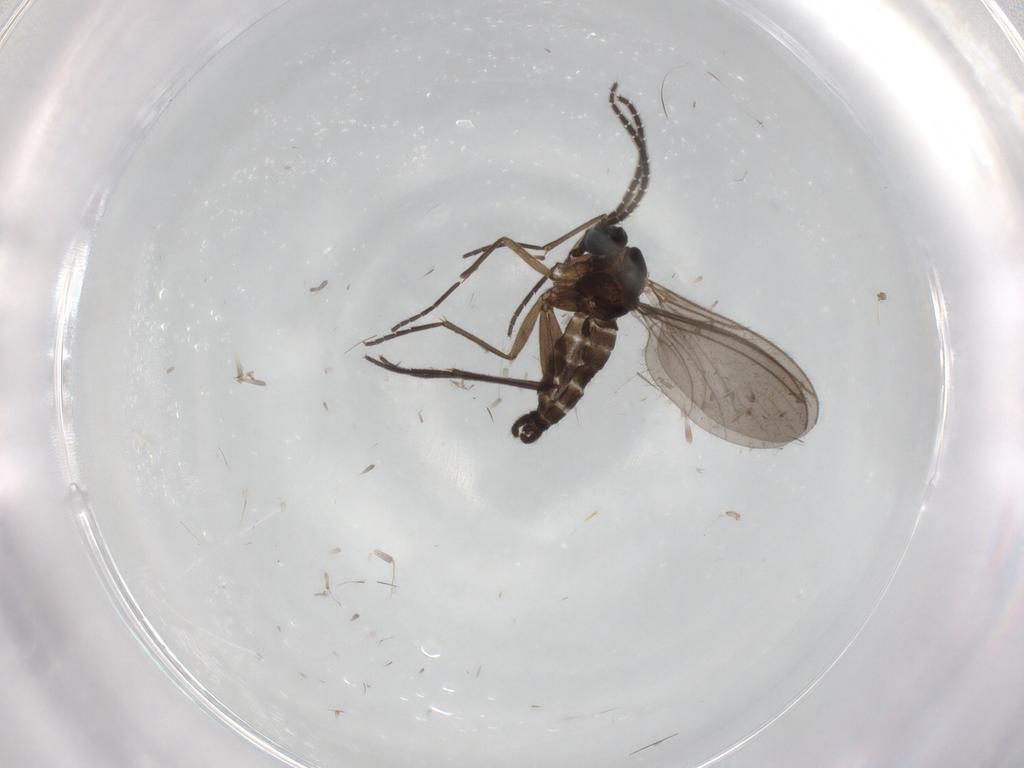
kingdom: Animalia
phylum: Arthropoda
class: Insecta
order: Diptera
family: Sciaridae
